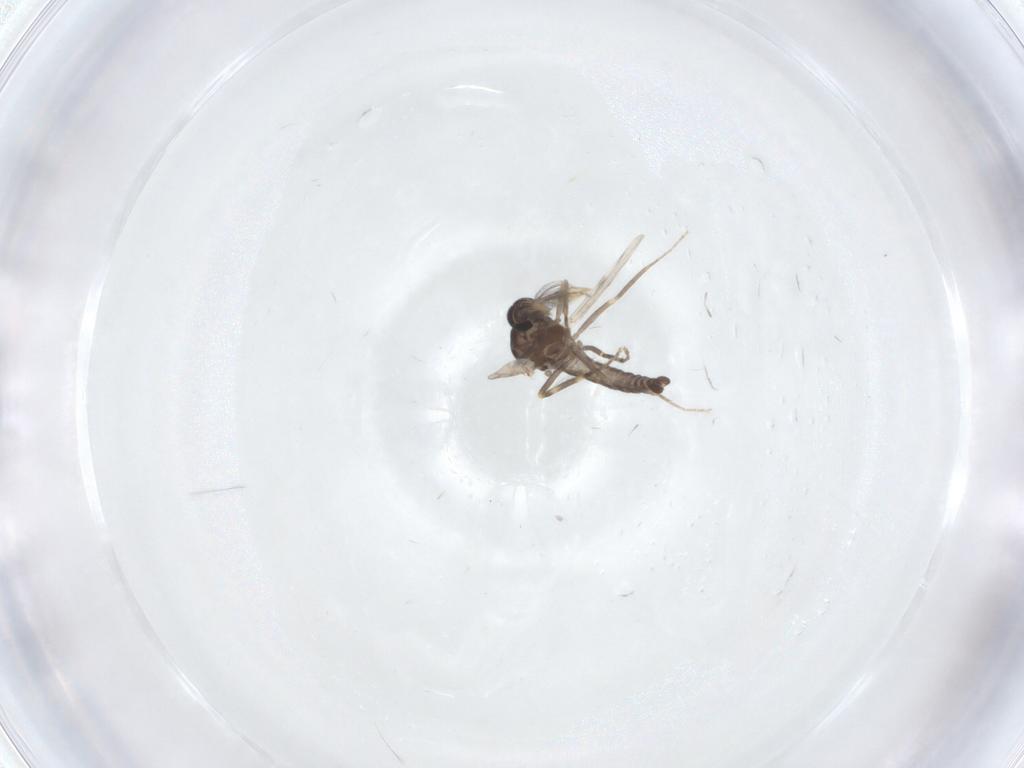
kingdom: Animalia
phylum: Arthropoda
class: Insecta
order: Diptera
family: Ceratopogonidae
